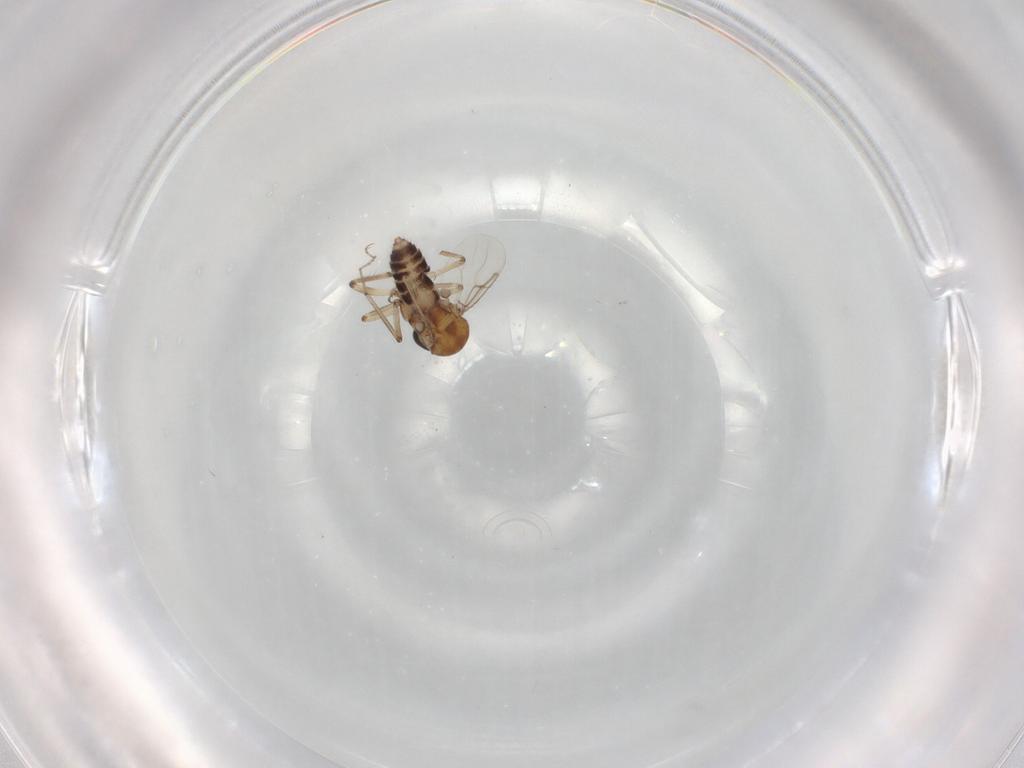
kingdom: Animalia
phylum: Arthropoda
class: Insecta
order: Diptera
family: Ceratopogonidae
